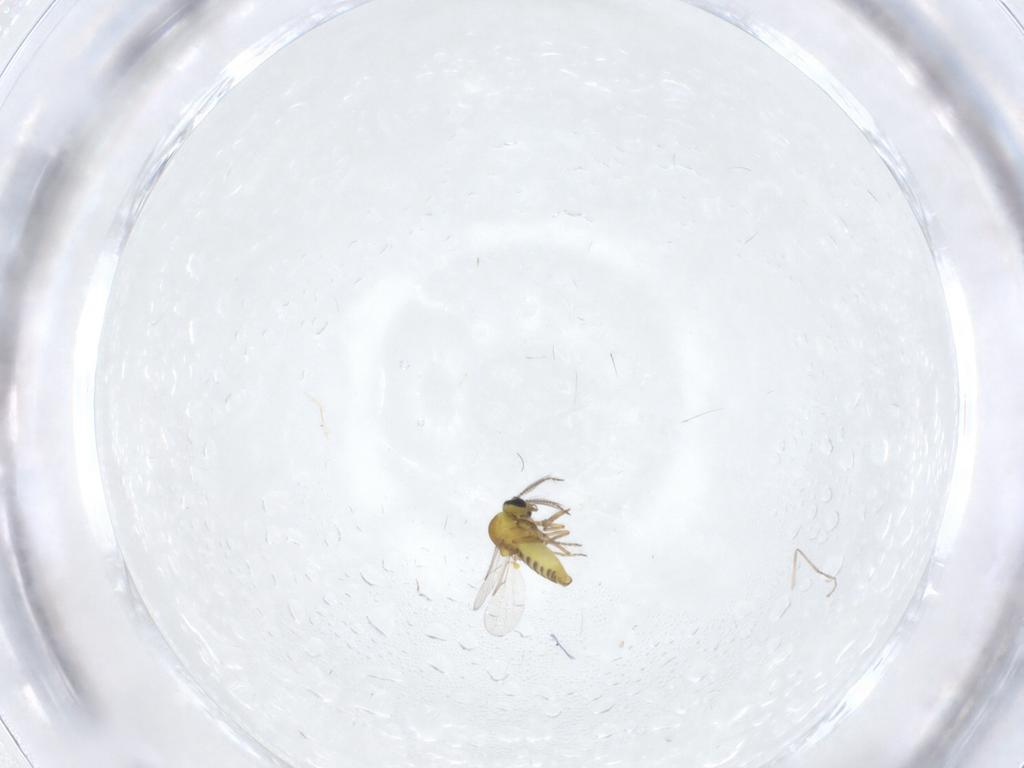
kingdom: Animalia
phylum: Arthropoda
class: Insecta
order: Diptera
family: Ceratopogonidae
